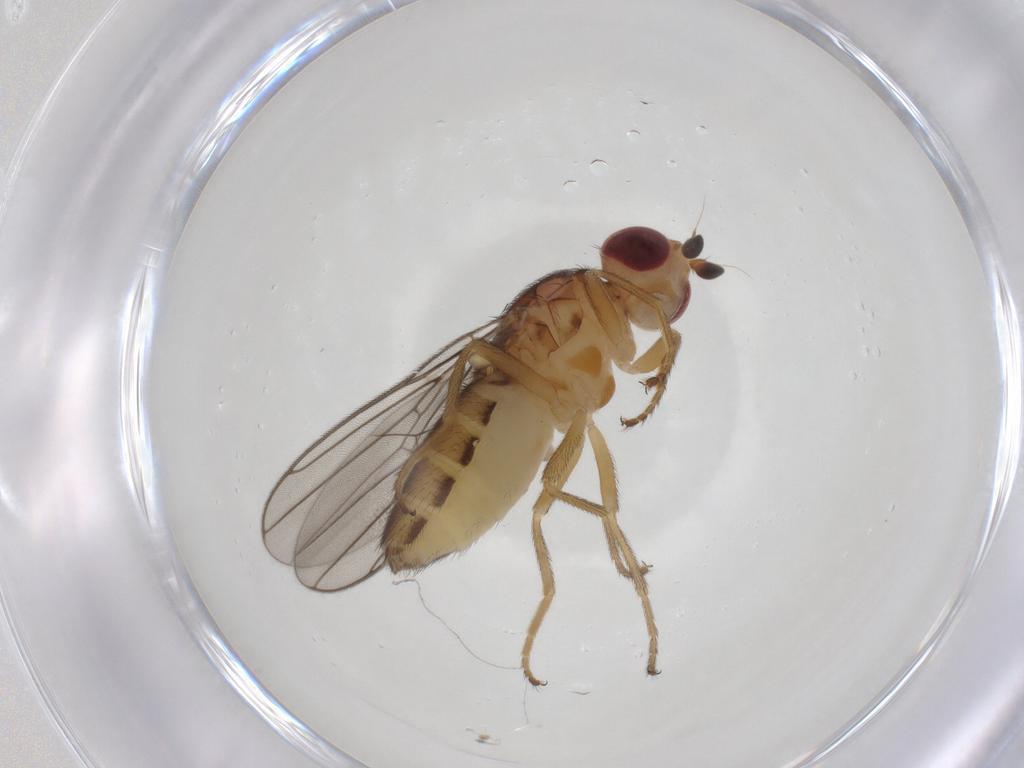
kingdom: Animalia
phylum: Arthropoda
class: Insecta
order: Diptera
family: Chloropidae
